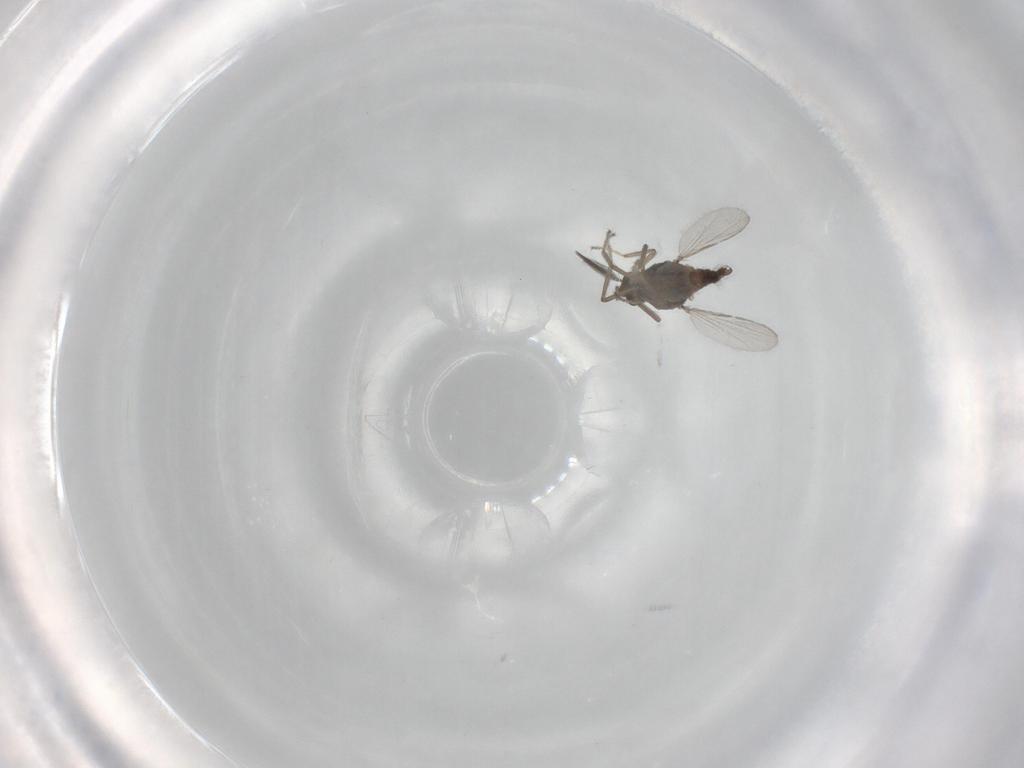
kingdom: Animalia
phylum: Arthropoda
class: Insecta
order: Diptera
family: Ceratopogonidae
